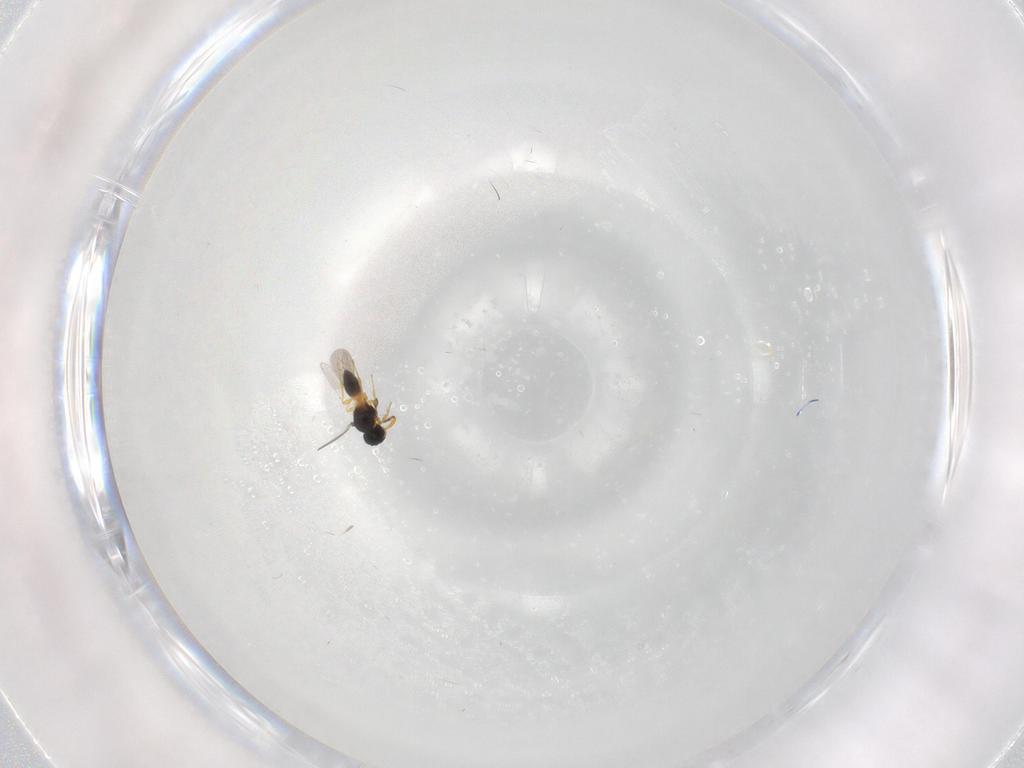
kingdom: Animalia
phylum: Arthropoda
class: Insecta
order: Hymenoptera
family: Platygastridae
